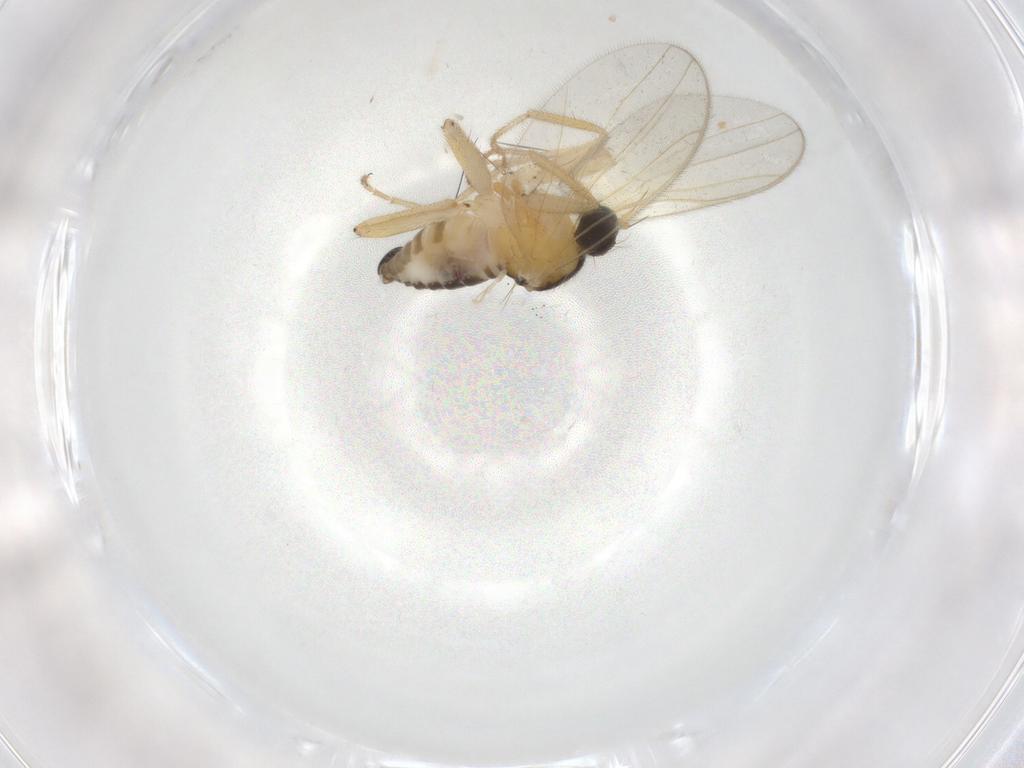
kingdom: Animalia
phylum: Arthropoda
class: Insecta
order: Diptera
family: Chironomidae
